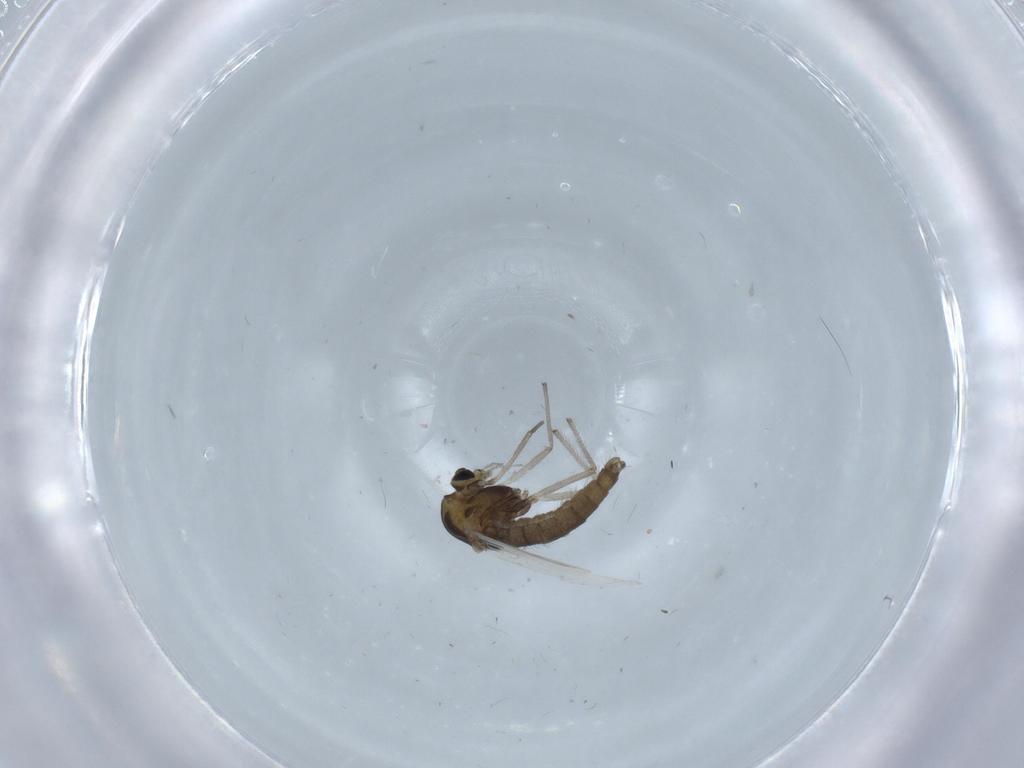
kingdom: Animalia
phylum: Arthropoda
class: Insecta
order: Diptera
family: Chironomidae
